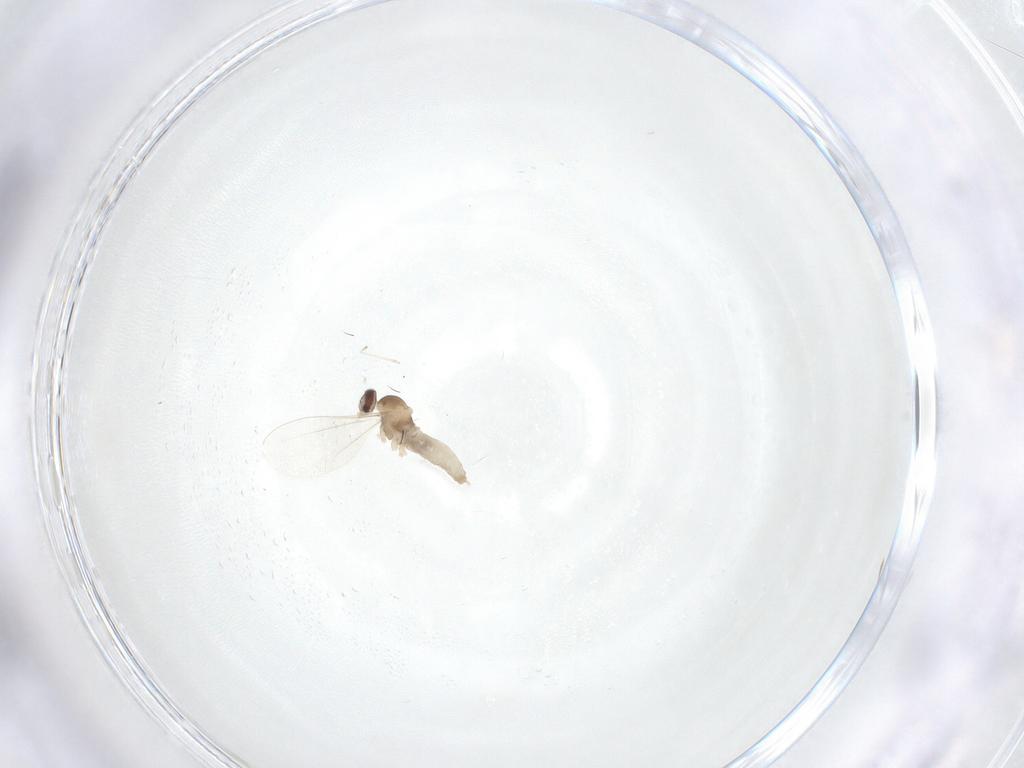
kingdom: Animalia
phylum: Arthropoda
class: Insecta
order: Diptera
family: Cecidomyiidae
